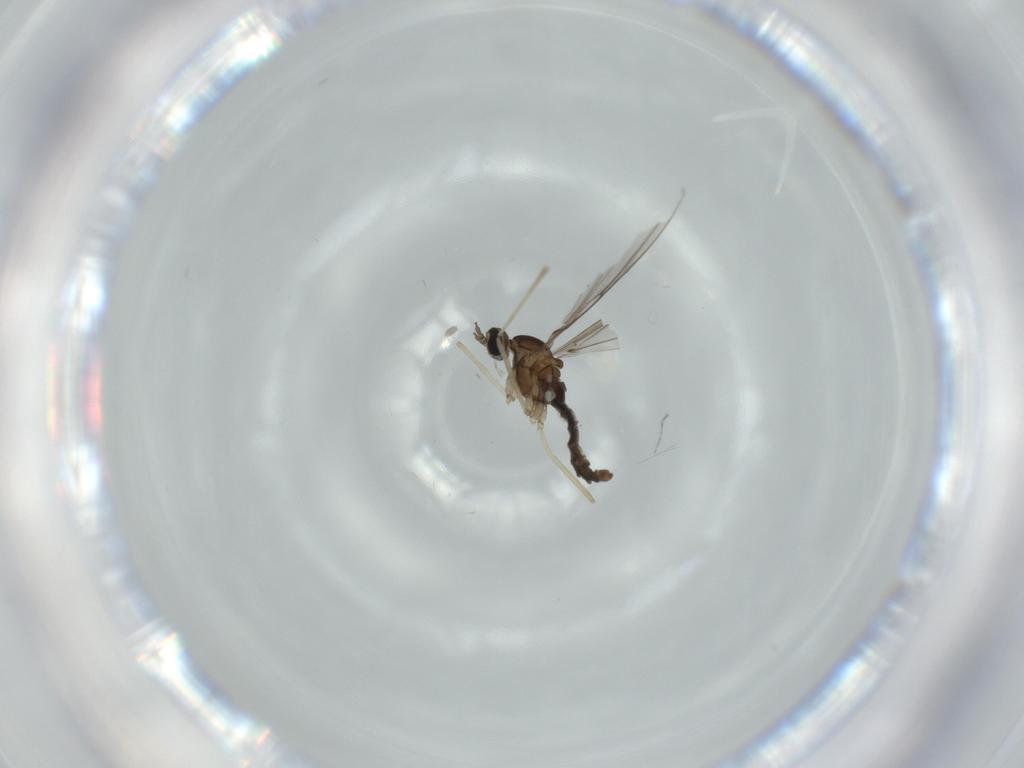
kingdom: Animalia
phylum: Arthropoda
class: Insecta
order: Diptera
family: Cecidomyiidae
